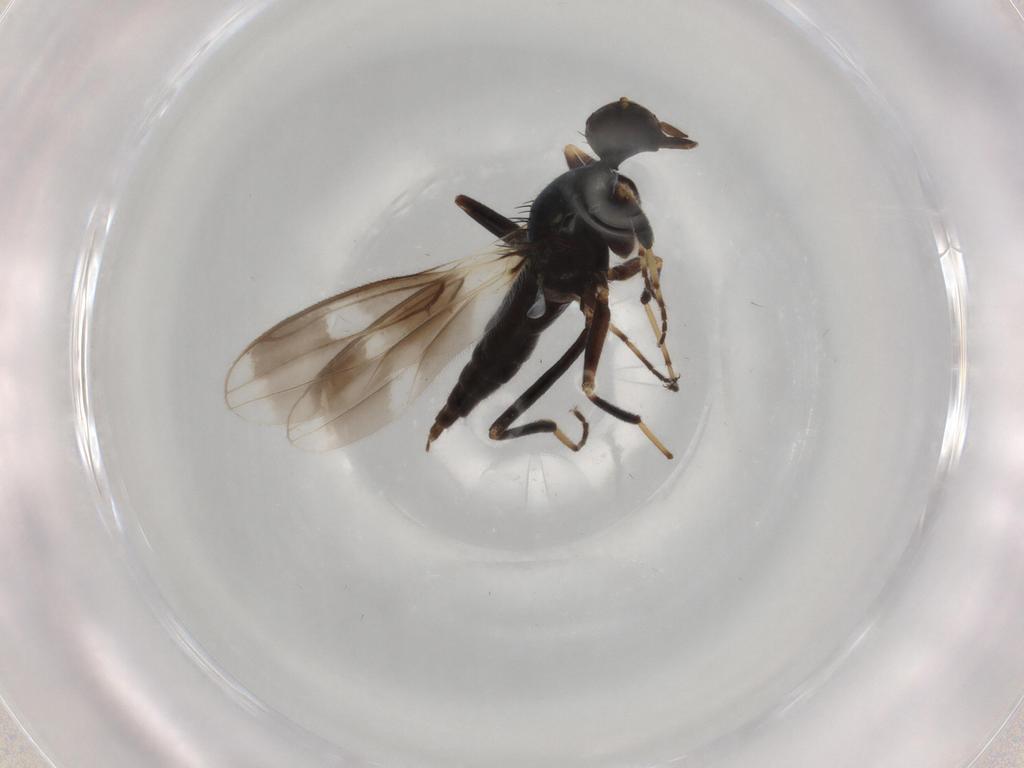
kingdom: Animalia
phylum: Arthropoda
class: Insecta
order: Diptera
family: Hybotidae
